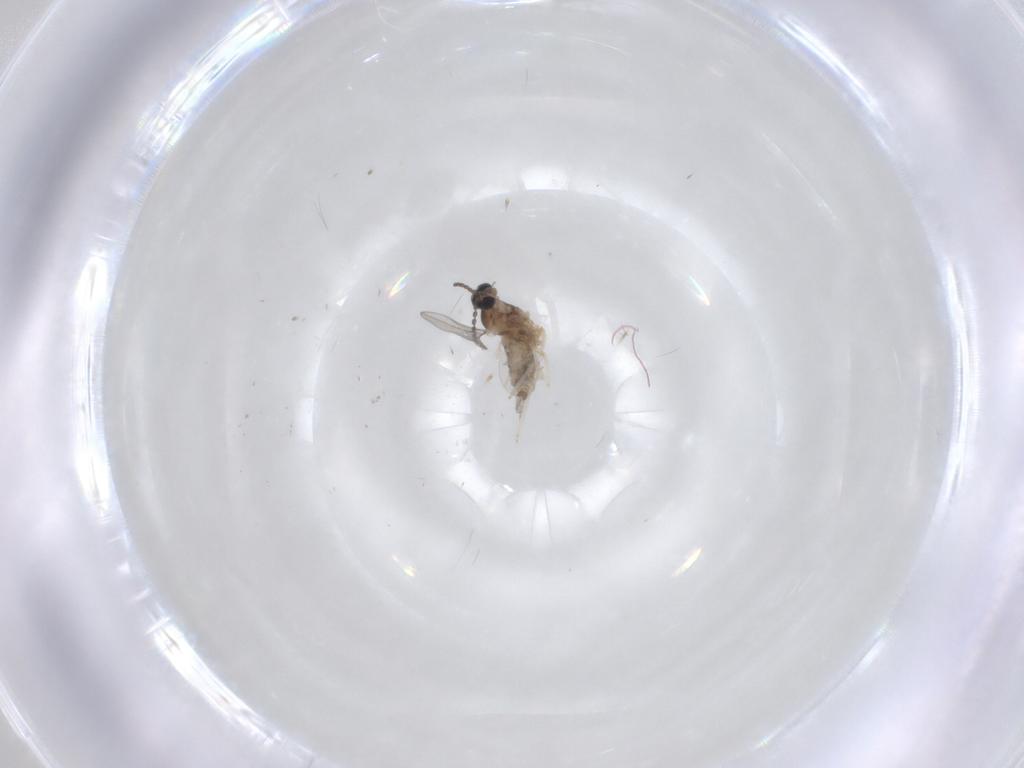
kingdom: Animalia
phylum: Arthropoda
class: Insecta
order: Diptera
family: Cecidomyiidae
